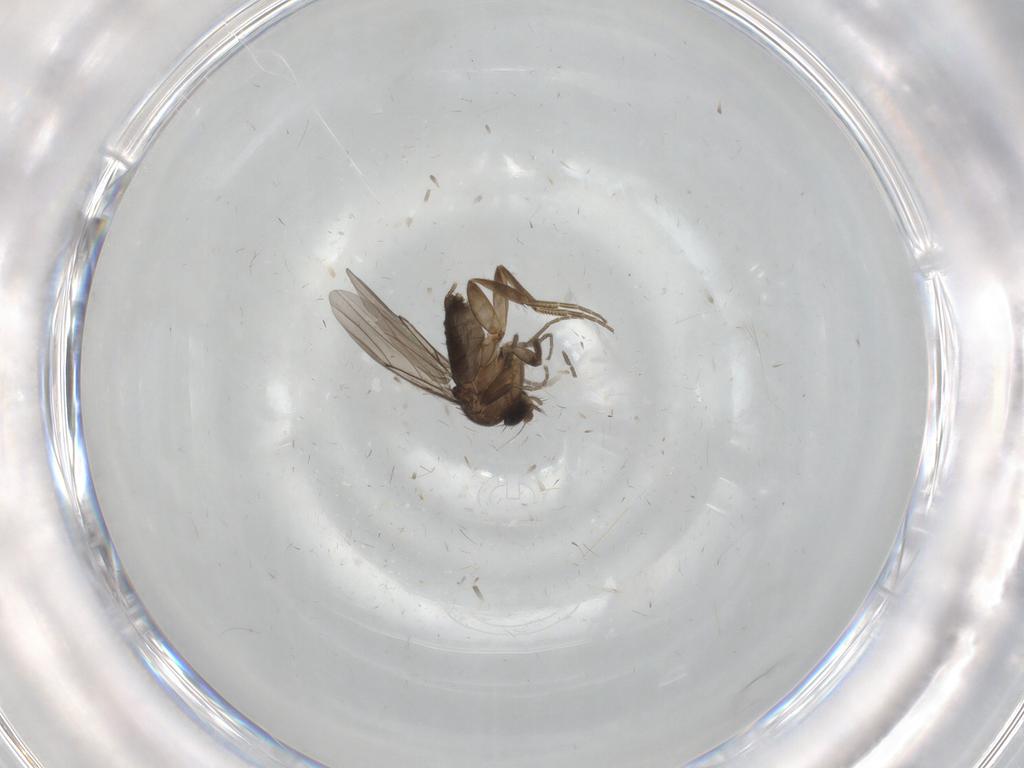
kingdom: Animalia
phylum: Arthropoda
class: Insecta
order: Diptera
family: Phoridae
